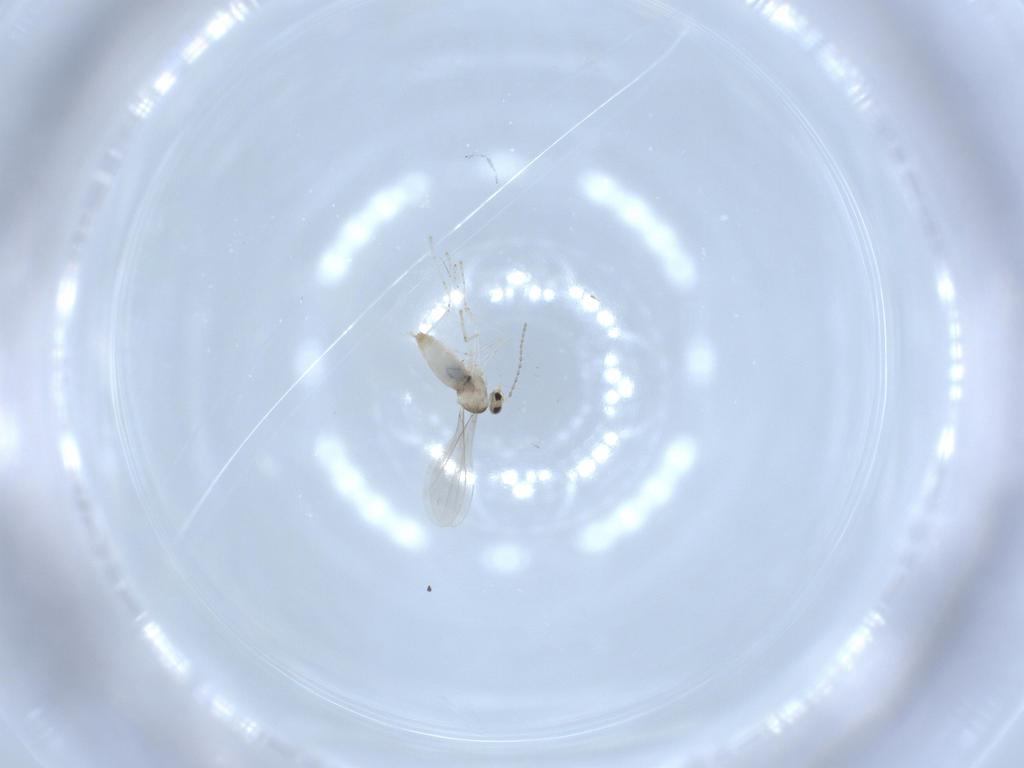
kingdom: Animalia
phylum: Arthropoda
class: Insecta
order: Diptera
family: Cecidomyiidae
